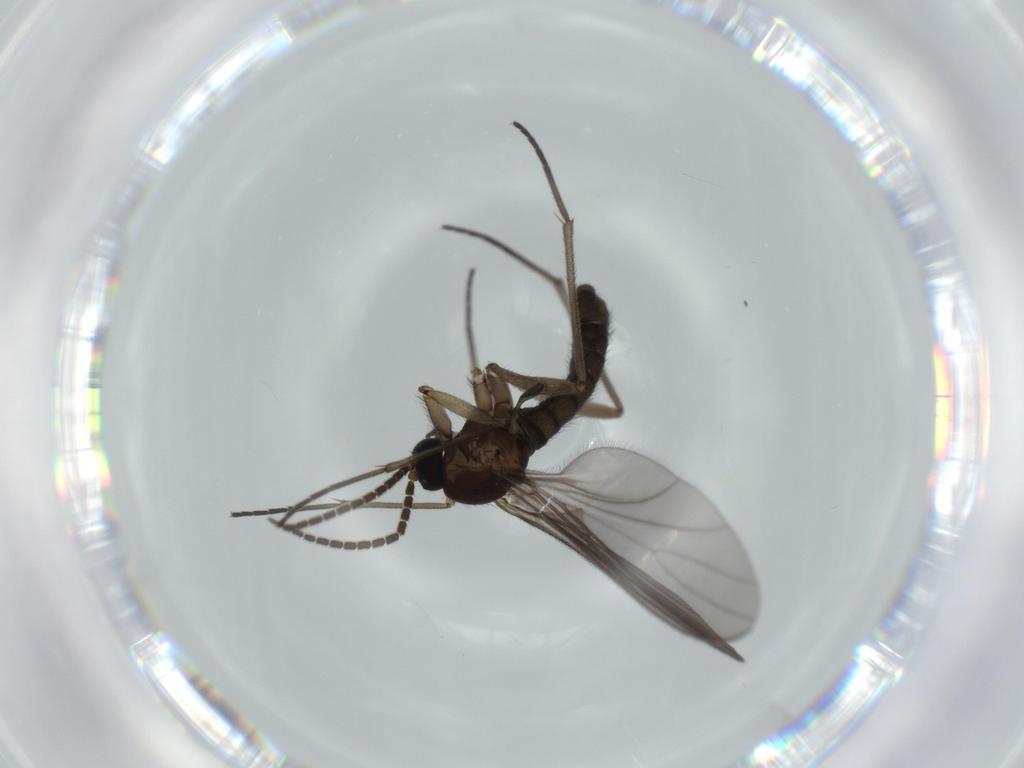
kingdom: Animalia
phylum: Arthropoda
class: Insecta
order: Diptera
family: Sciaridae
